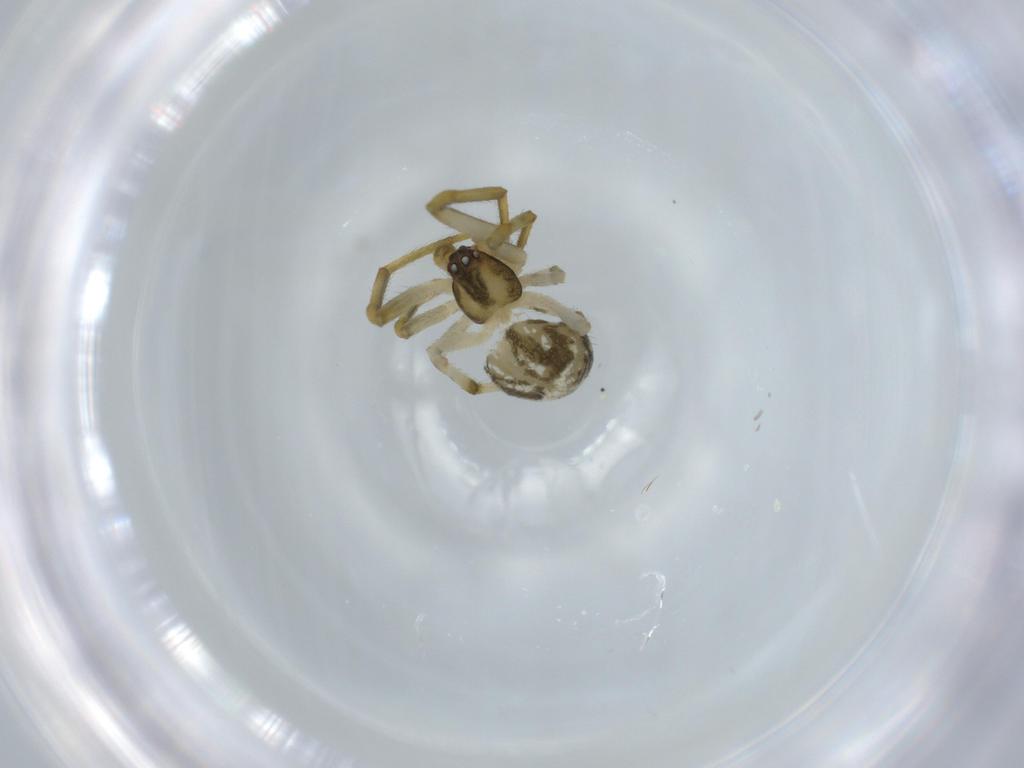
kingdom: Animalia
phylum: Arthropoda
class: Arachnida
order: Araneae
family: Theridiidae
